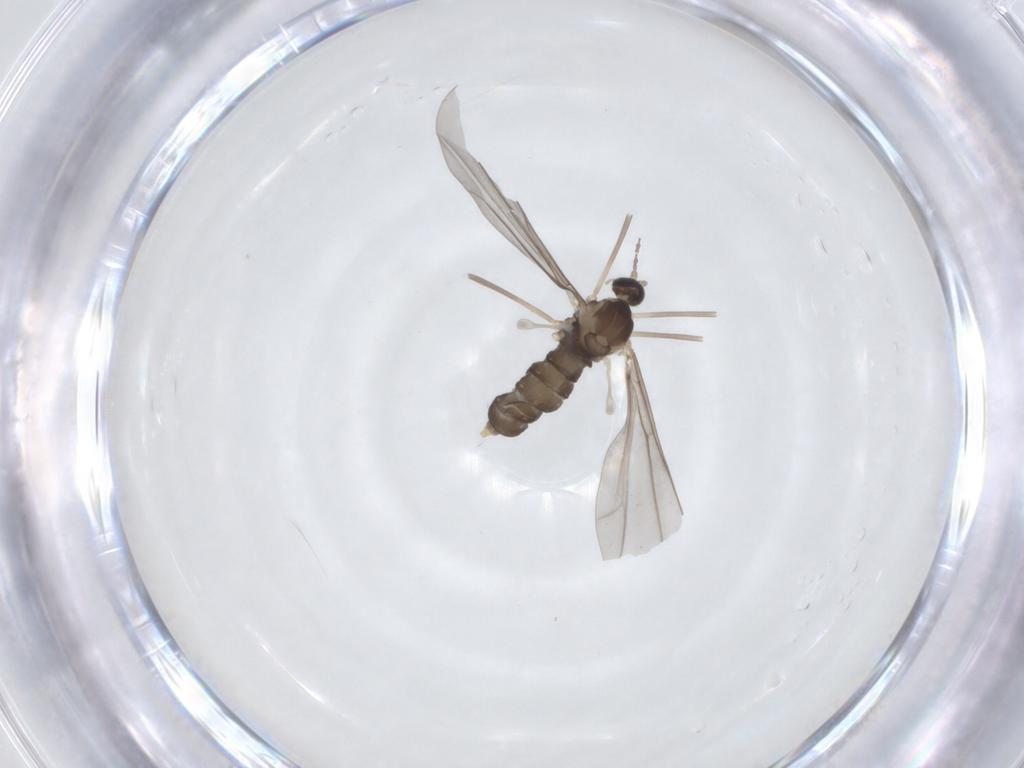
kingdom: Animalia
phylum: Arthropoda
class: Insecta
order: Diptera
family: Cecidomyiidae
